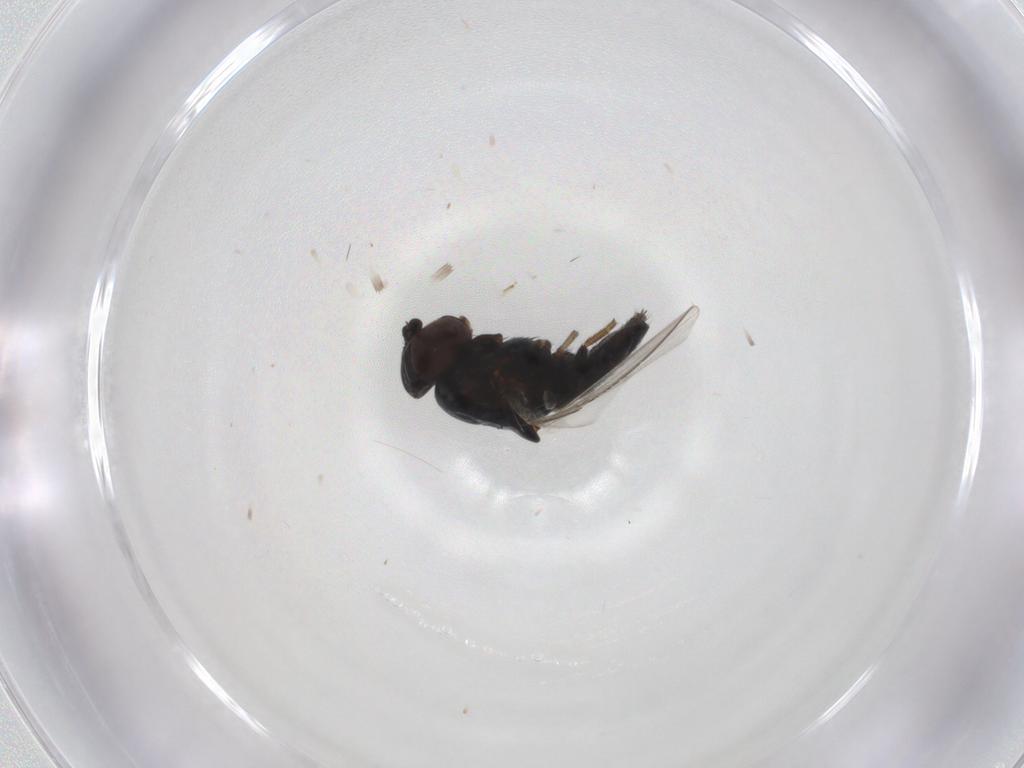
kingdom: Animalia
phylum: Arthropoda
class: Insecta
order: Diptera
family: Milichiidae
